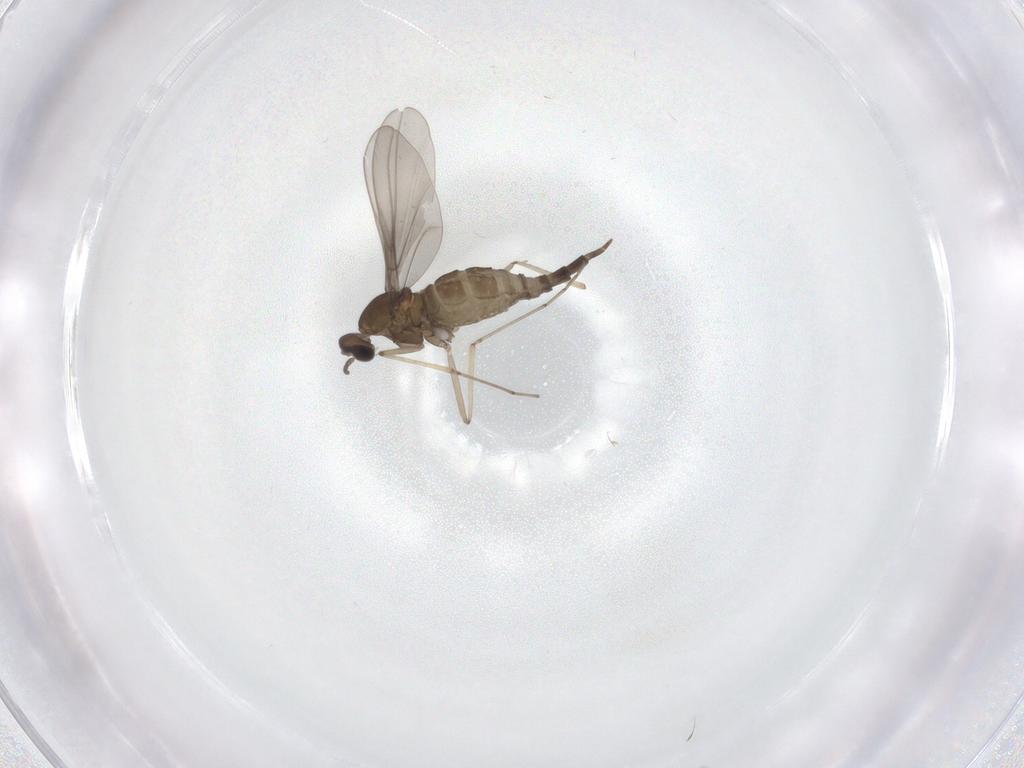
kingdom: Animalia
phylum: Arthropoda
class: Insecta
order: Diptera
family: Cecidomyiidae
